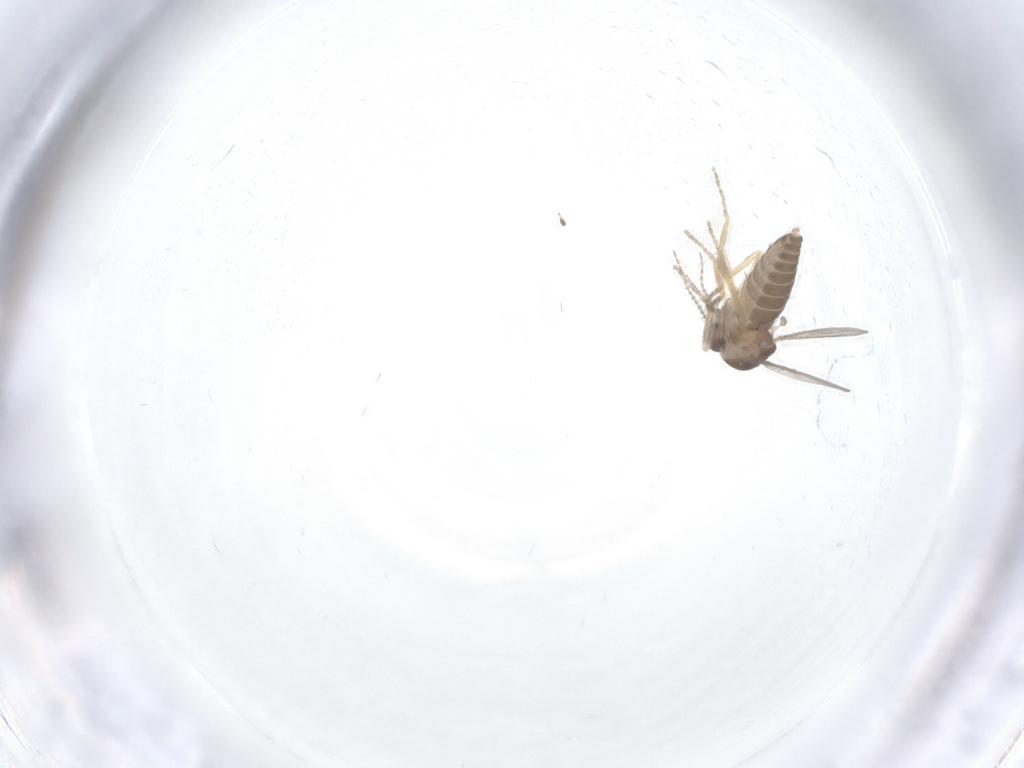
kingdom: Animalia
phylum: Arthropoda
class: Insecta
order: Diptera
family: Ceratopogonidae
